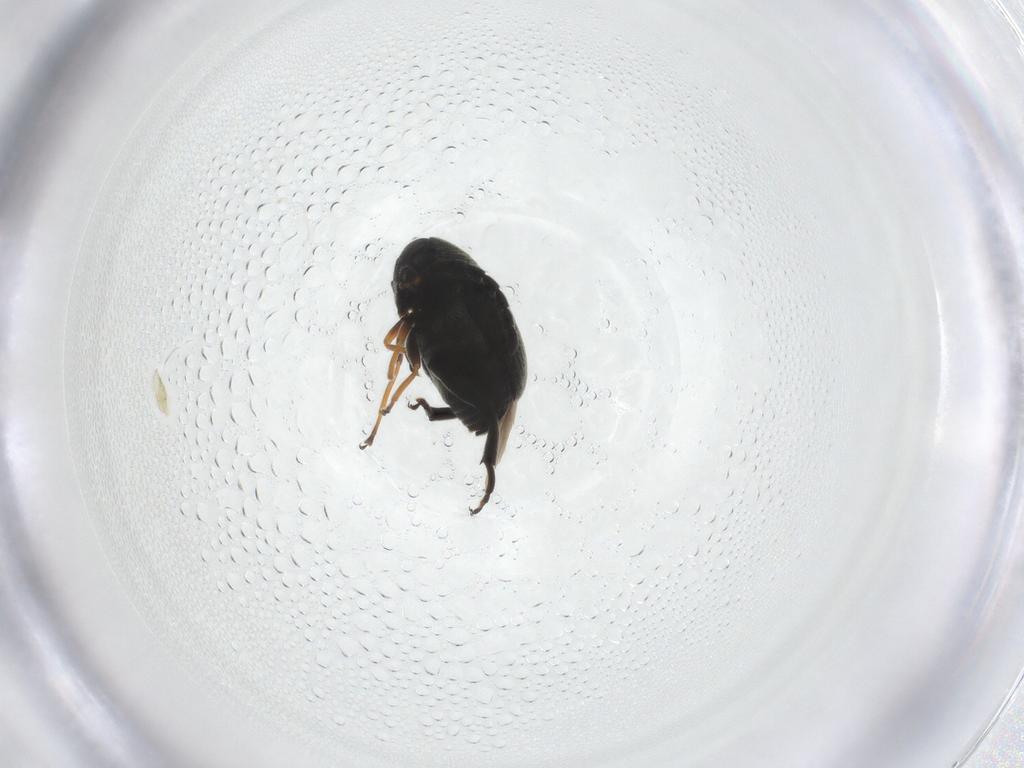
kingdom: Animalia
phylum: Arthropoda
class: Insecta
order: Coleoptera
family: Chrysomelidae
